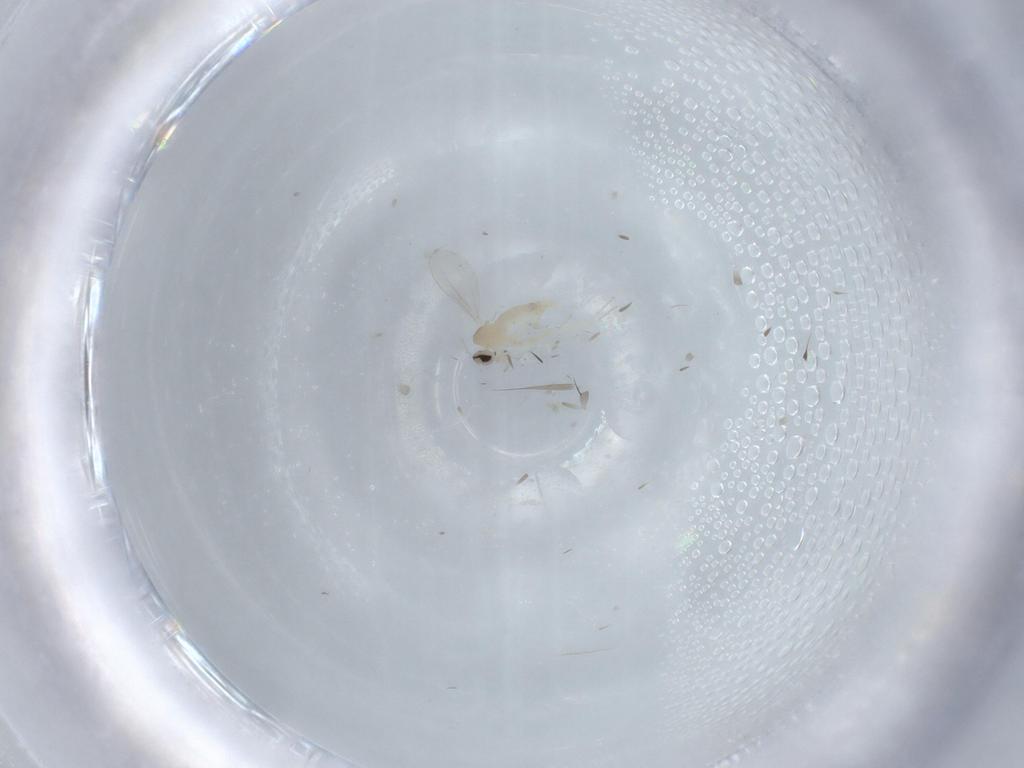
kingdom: Animalia
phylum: Arthropoda
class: Insecta
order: Diptera
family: Cecidomyiidae
